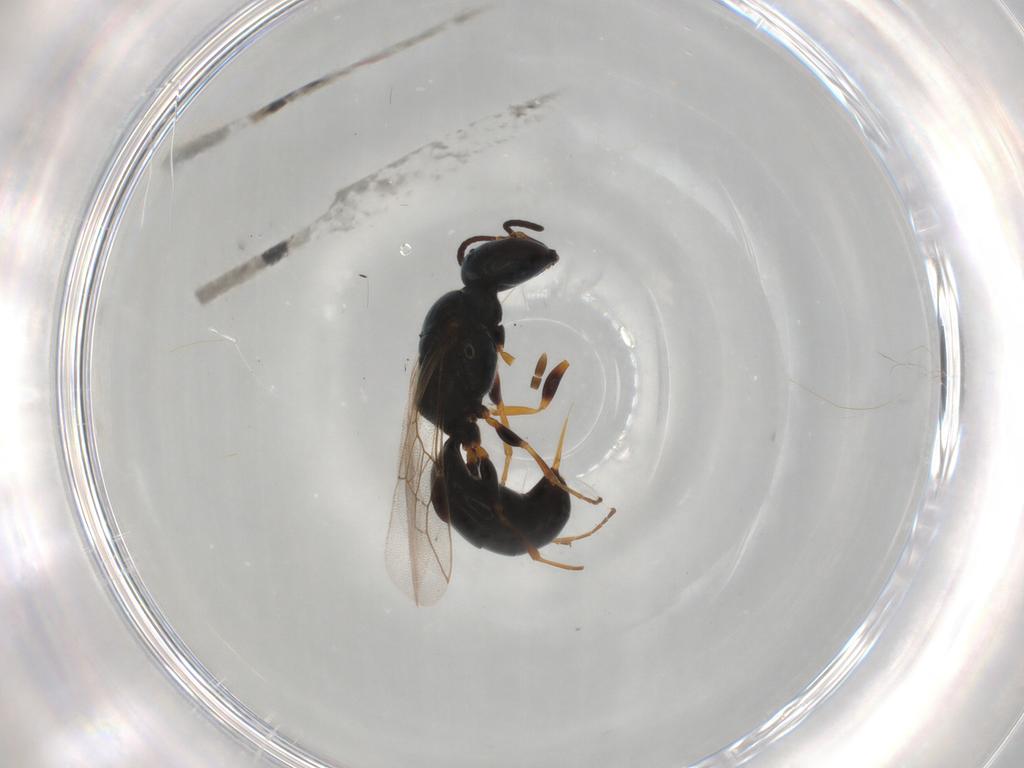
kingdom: Animalia
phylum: Arthropoda
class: Insecta
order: Hymenoptera
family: Crabronidae
